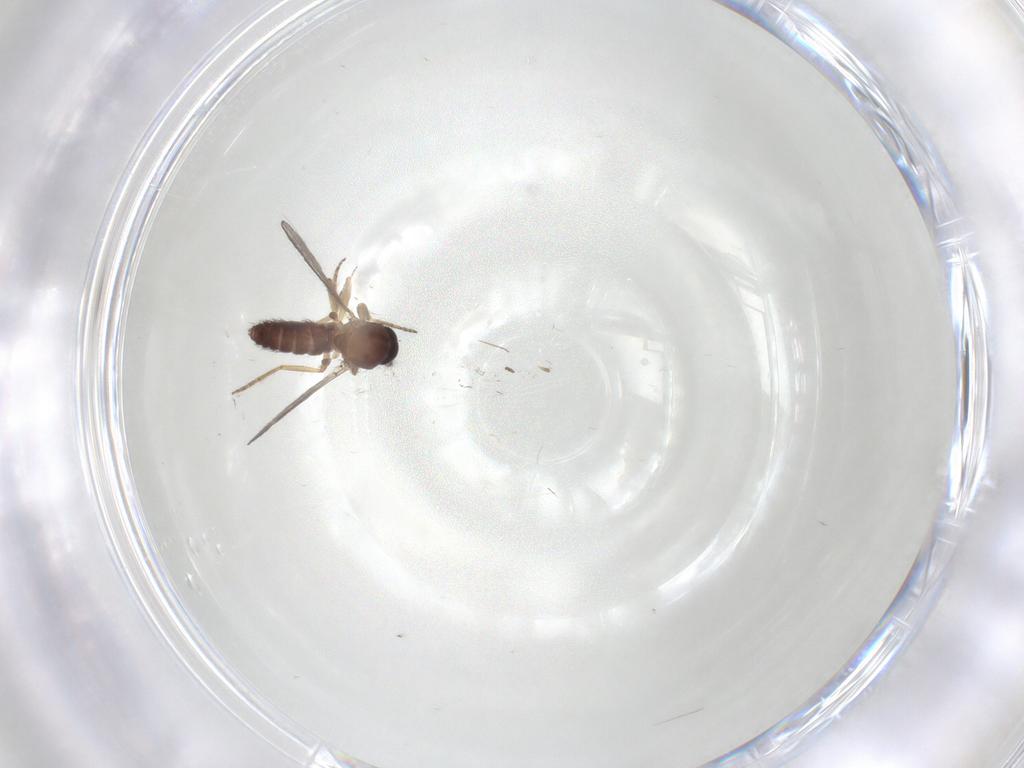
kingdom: Animalia
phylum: Arthropoda
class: Insecta
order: Diptera
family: Ceratopogonidae
